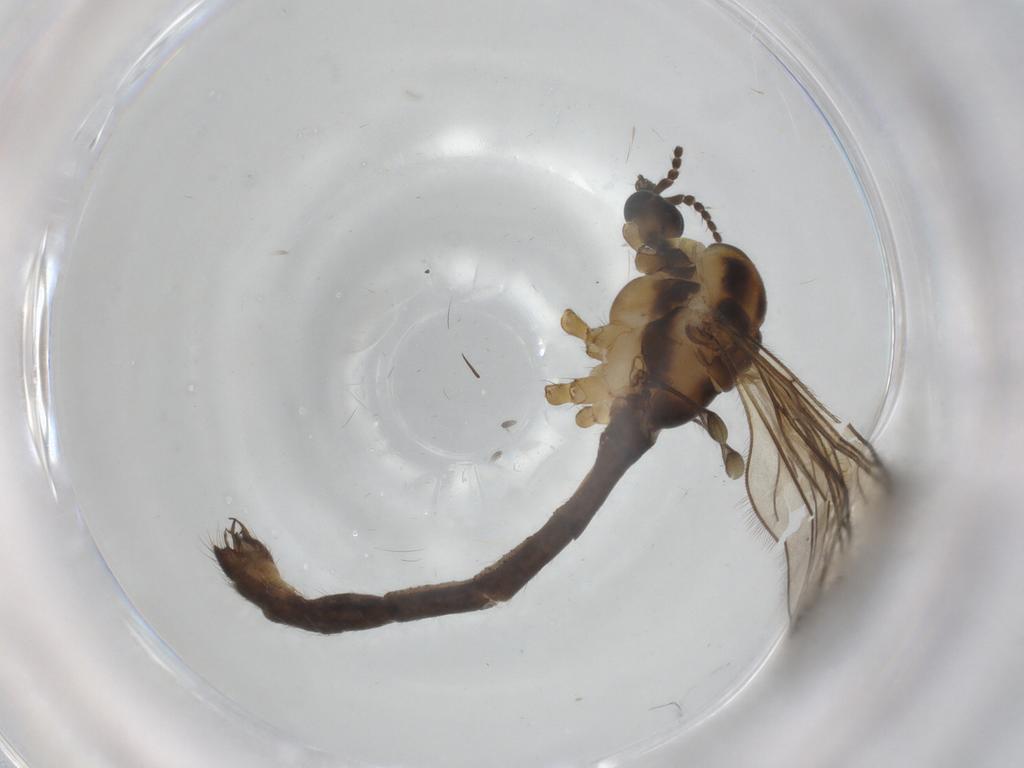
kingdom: Animalia
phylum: Arthropoda
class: Insecta
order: Diptera
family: Limoniidae
